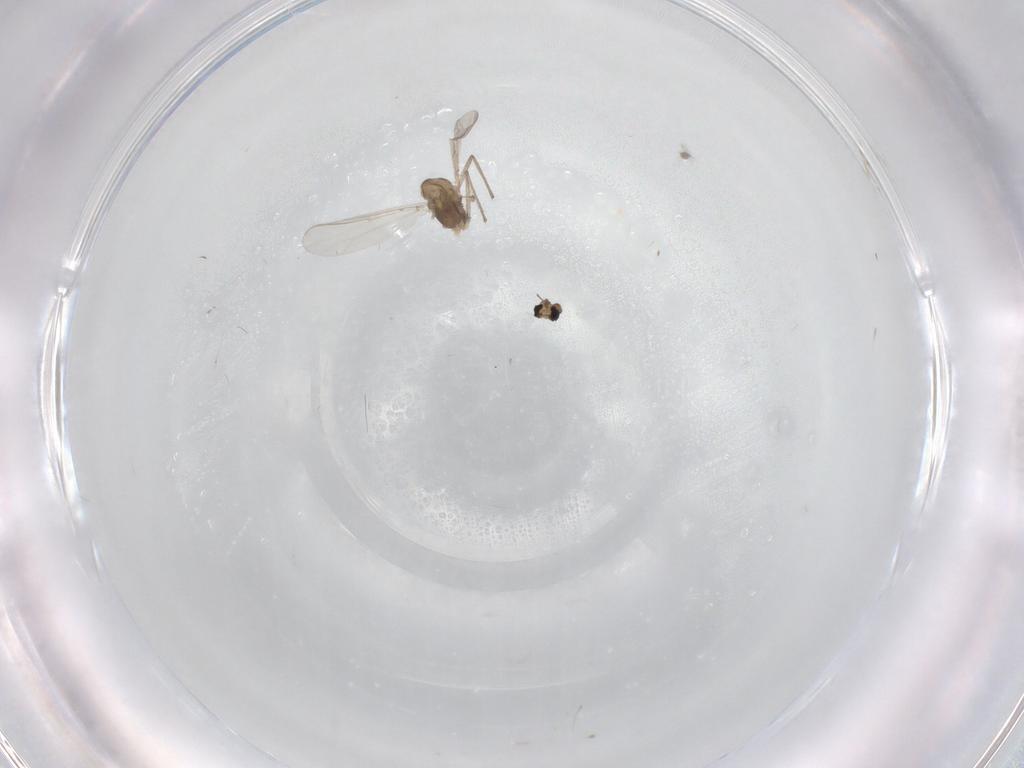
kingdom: Animalia
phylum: Arthropoda
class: Insecta
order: Diptera
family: Chironomidae
